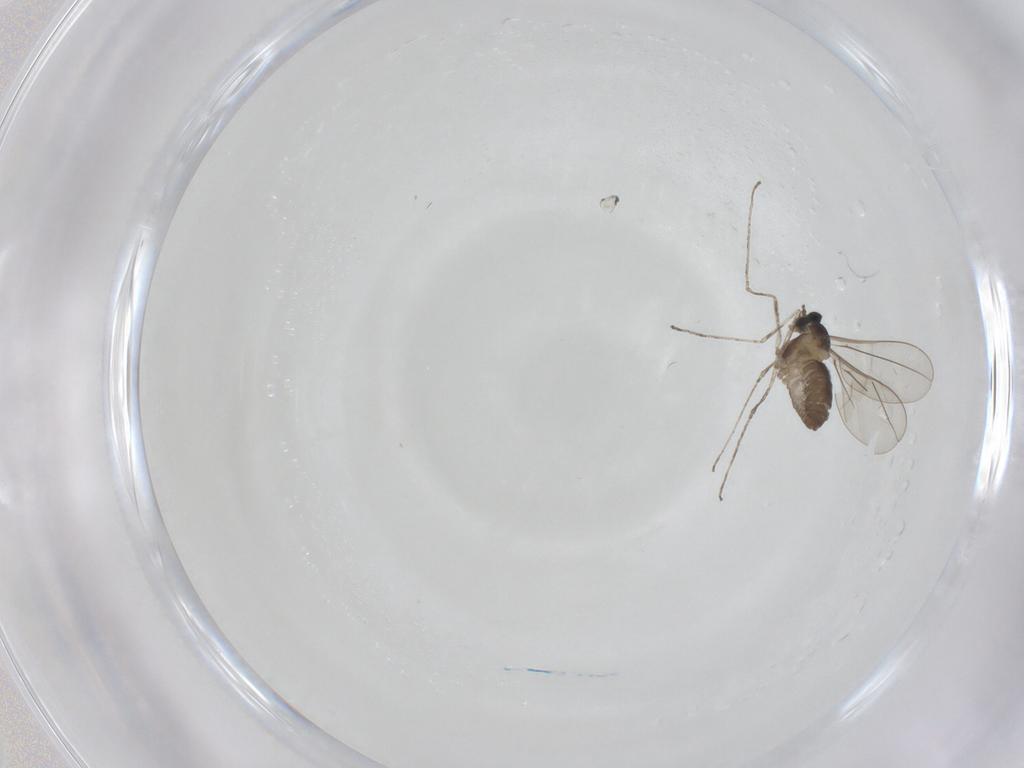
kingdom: Animalia
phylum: Arthropoda
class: Insecta
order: Diptera
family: Cecidomyiidae
